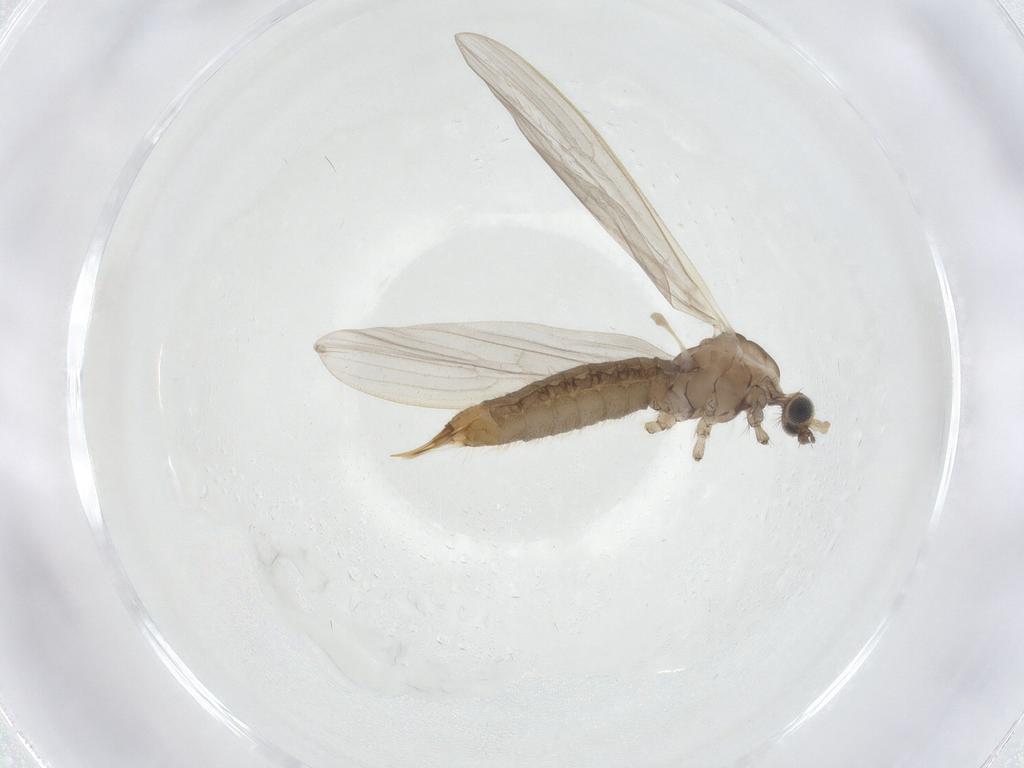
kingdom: Animalia
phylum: Arthropoda
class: Insecta
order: Diptera
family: Limoniidae
